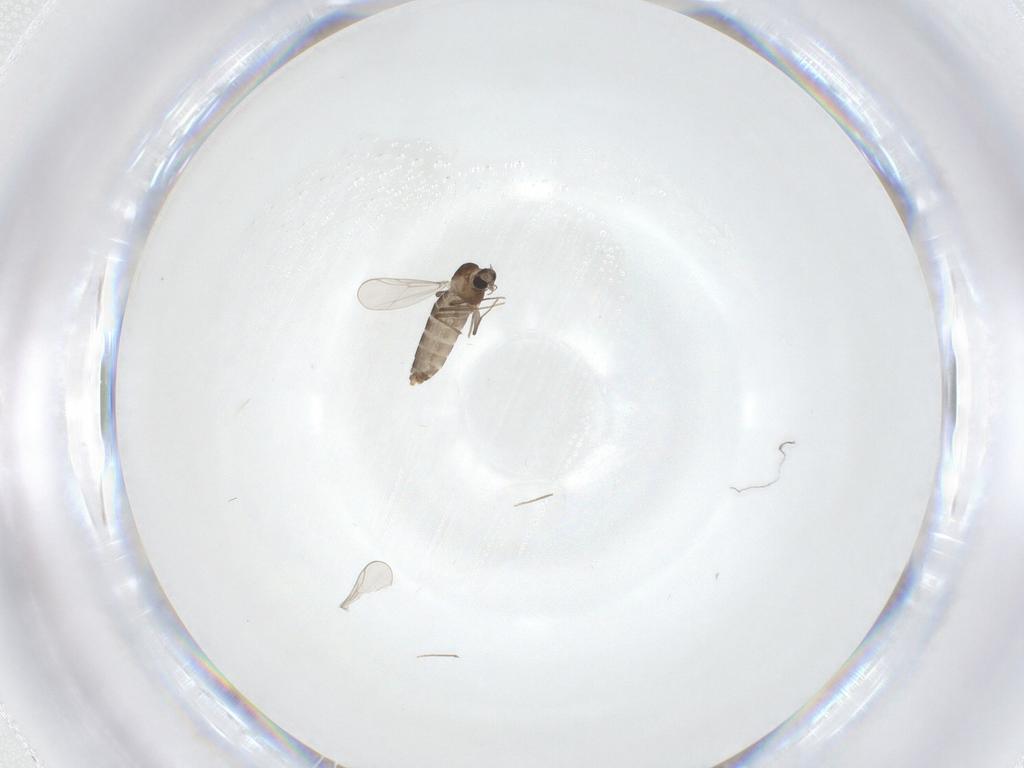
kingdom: Animalia
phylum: Arthropoda
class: Insecta
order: Diptera
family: Chironomidae
